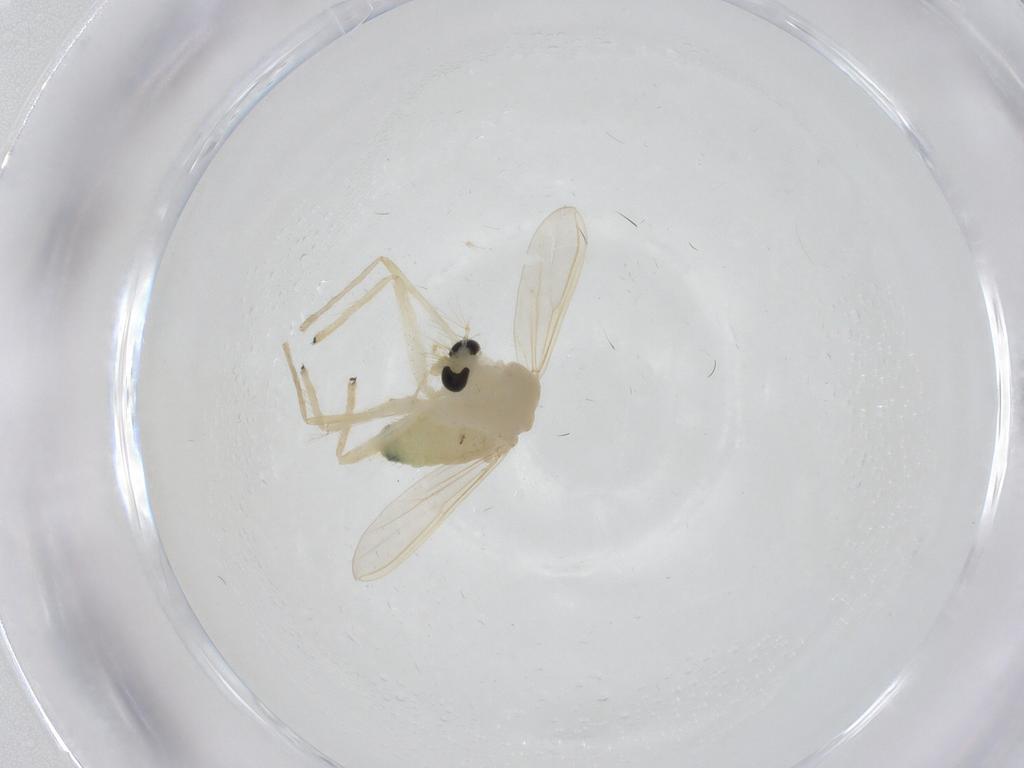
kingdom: Animalia
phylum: Arthropoda
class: Insecta
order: Diptera
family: Chironomidae
